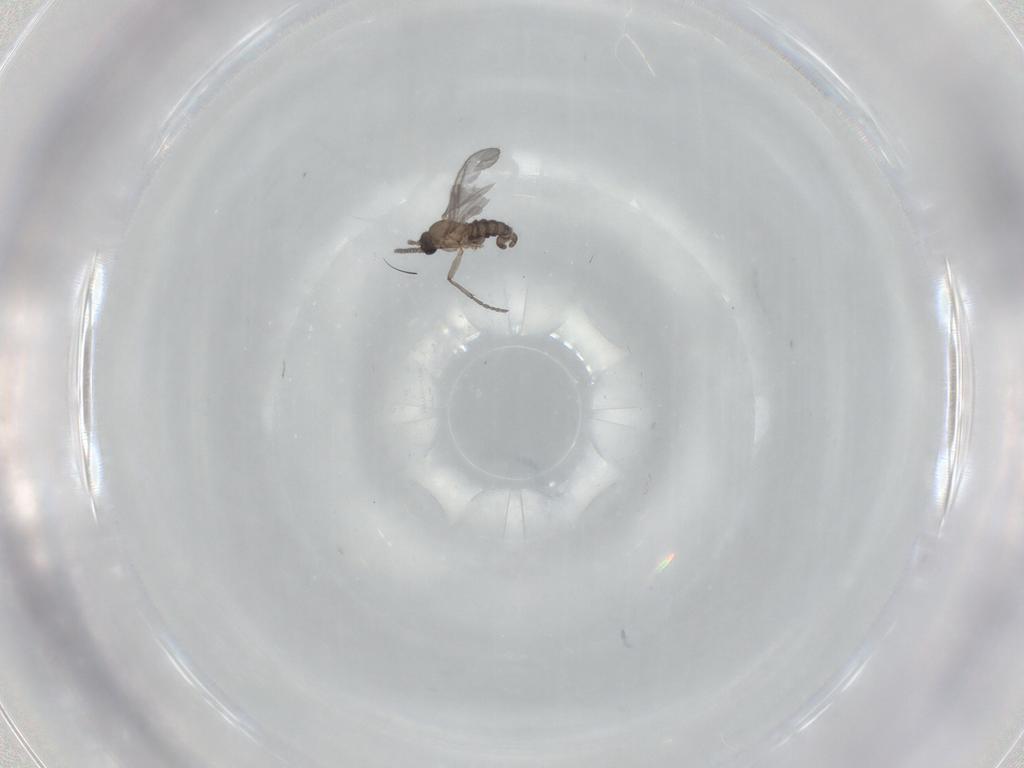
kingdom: Animalia
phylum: Arthropoda
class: Insecta
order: Diptera
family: Sciaridae
